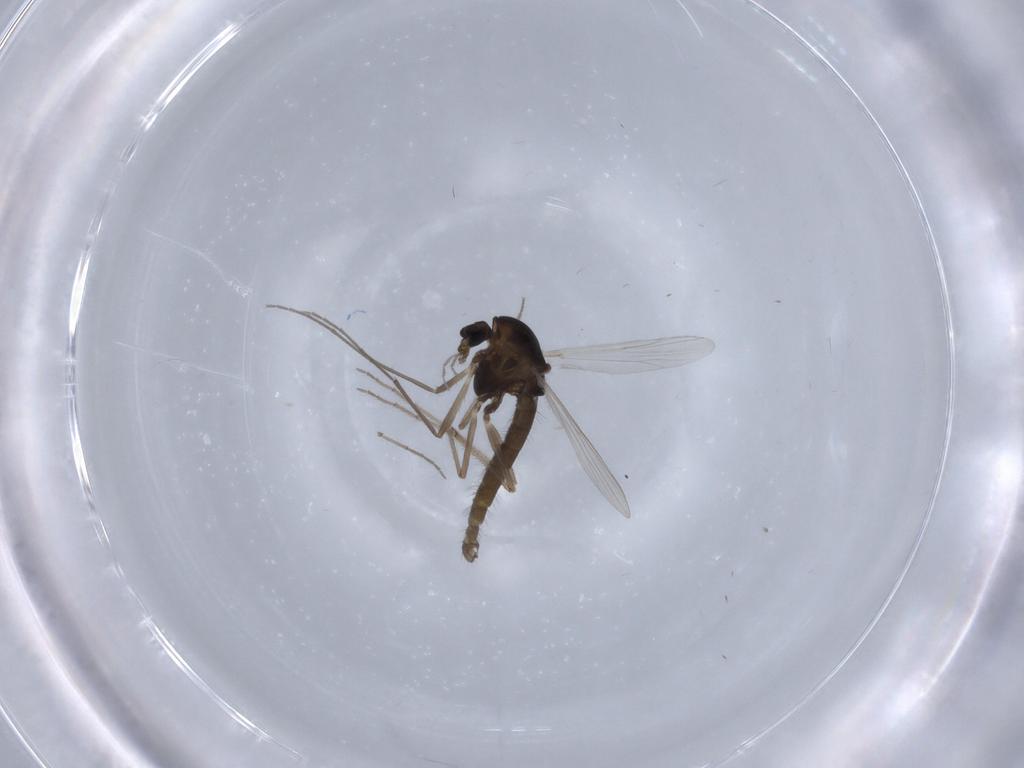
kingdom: Animalia
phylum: Arthropoda
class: Insecta
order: Diptera
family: Chironomidae
